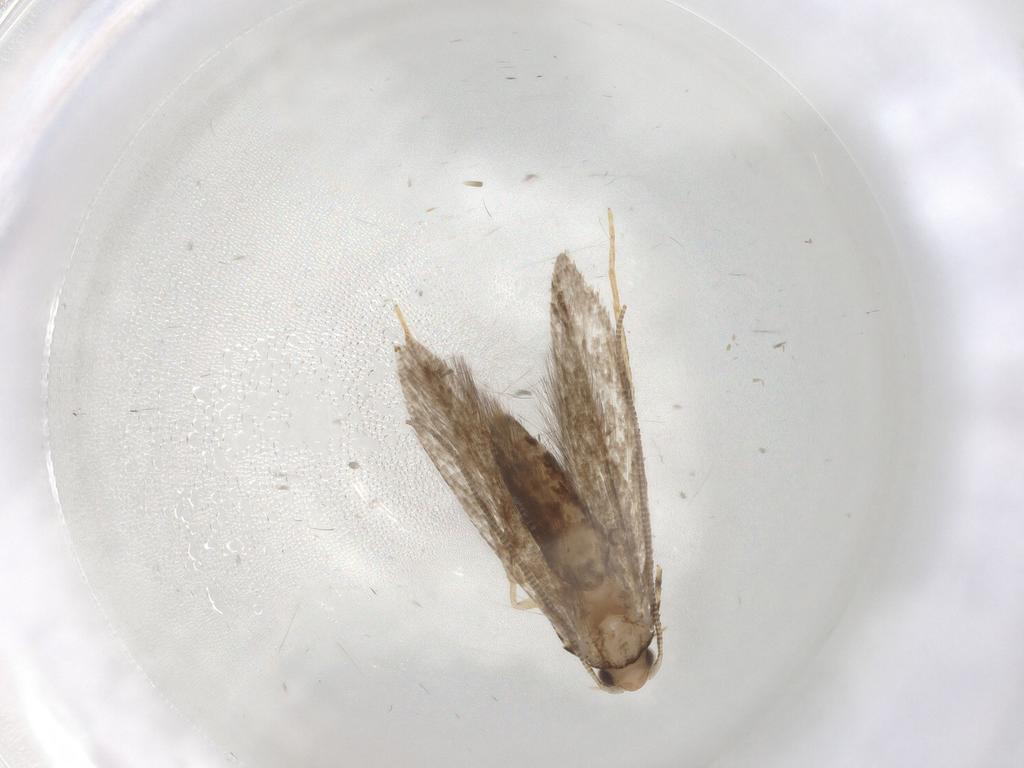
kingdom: Animalia
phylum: Arthropoda
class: Insecta
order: Lepidoptera
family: Tineidae
